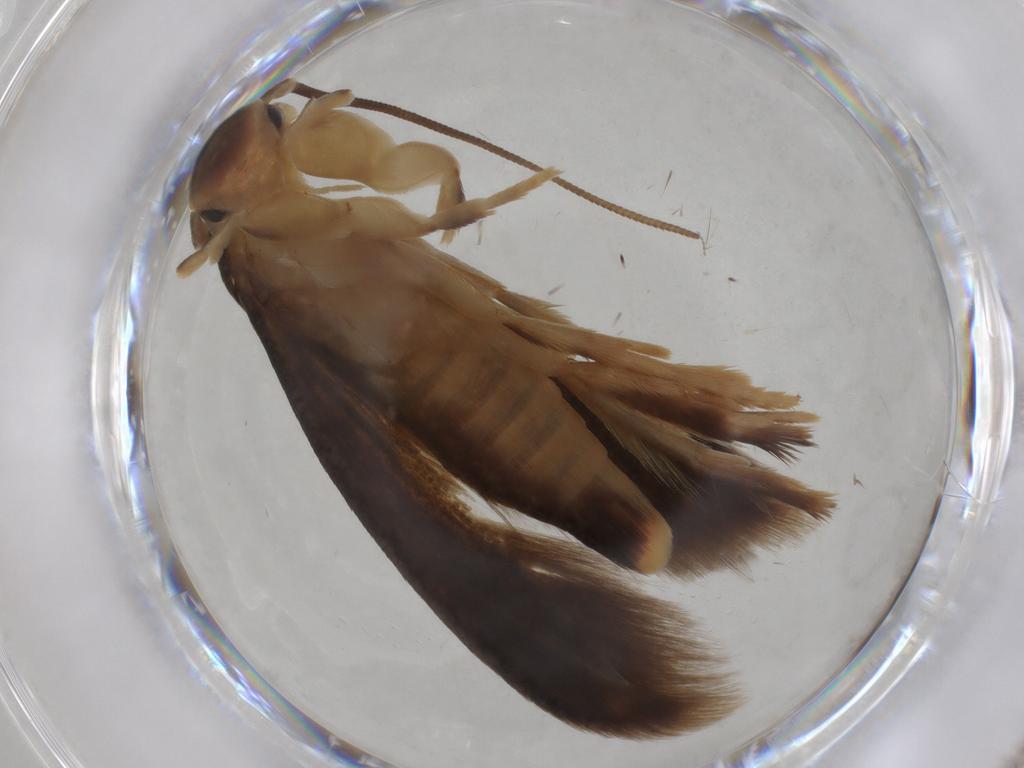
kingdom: Animalia
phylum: Arthropoda
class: Insecta
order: Lepidoptera
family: Tineidae
